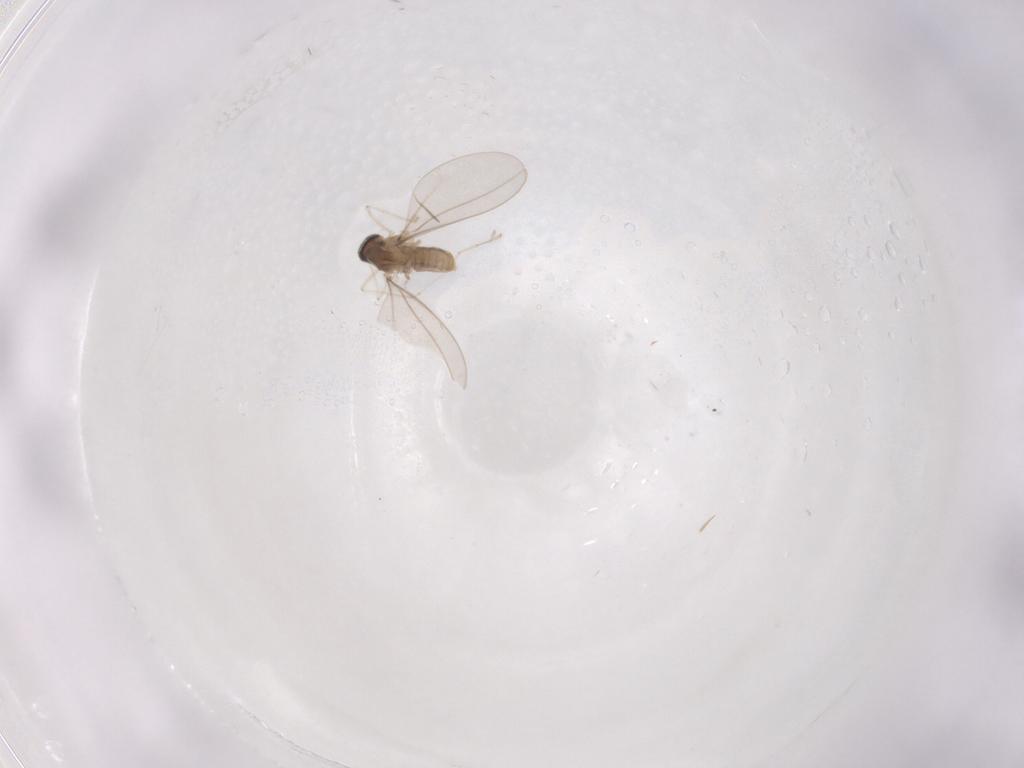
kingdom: Animalia
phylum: Arthropoda
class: Insecta
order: Diptera
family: Cecidomyiidae
